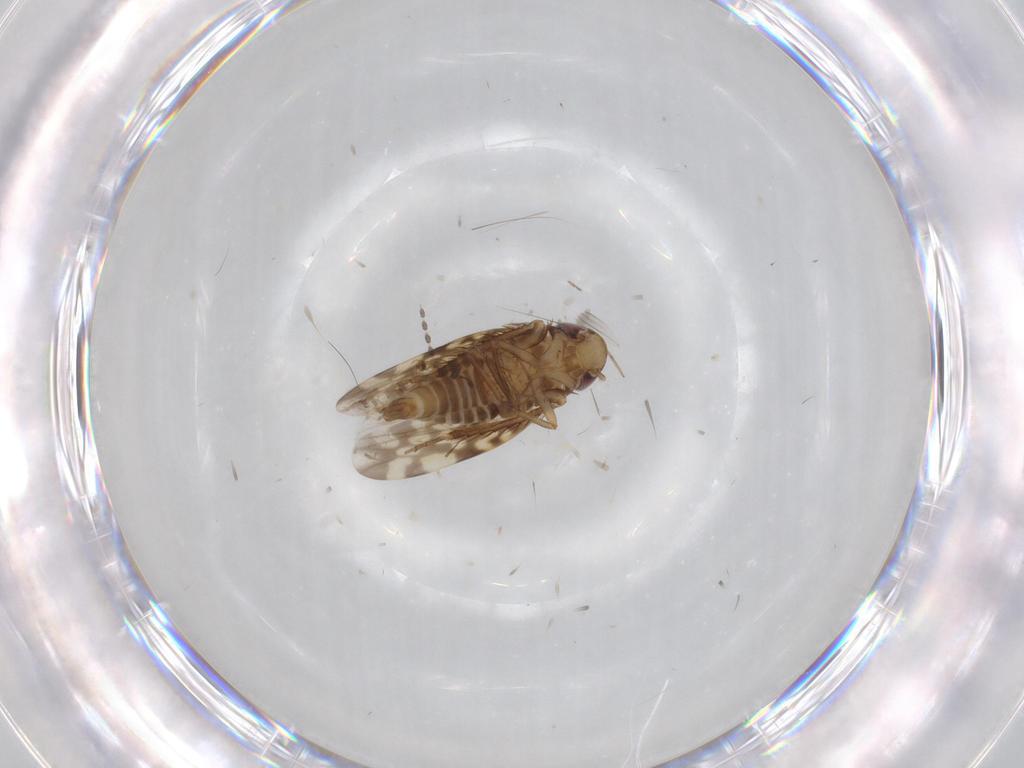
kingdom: Animalia
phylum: Arthropoda
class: Insecta
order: Hemiptera
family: Cicadellidae
